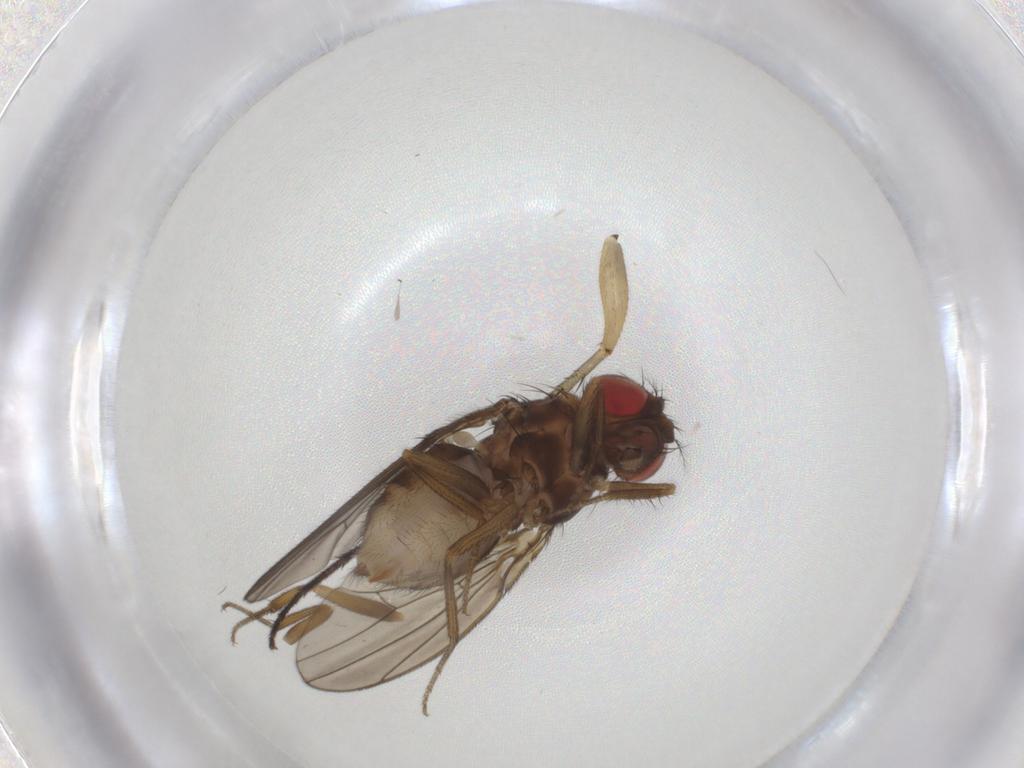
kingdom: Animalia
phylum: Arthropoda
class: Insecta
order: Diptera
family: Drosophilidae
